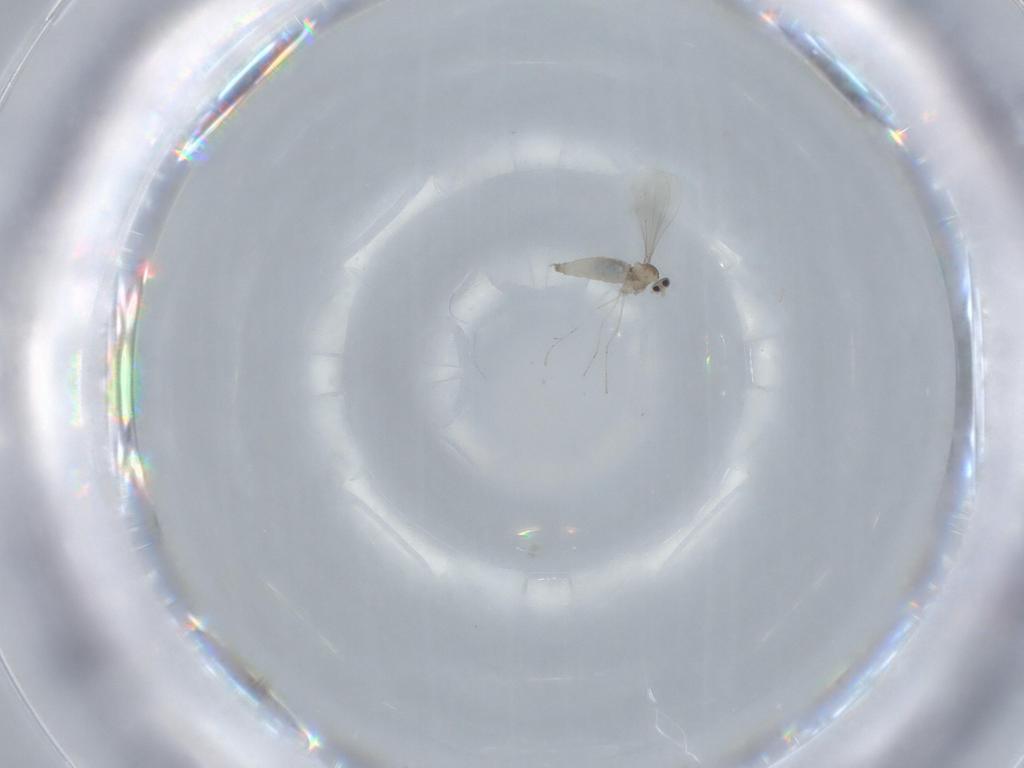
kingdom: Animalia
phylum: Arthropoda
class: Insecta
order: Diptera
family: Cecidomyiidae
